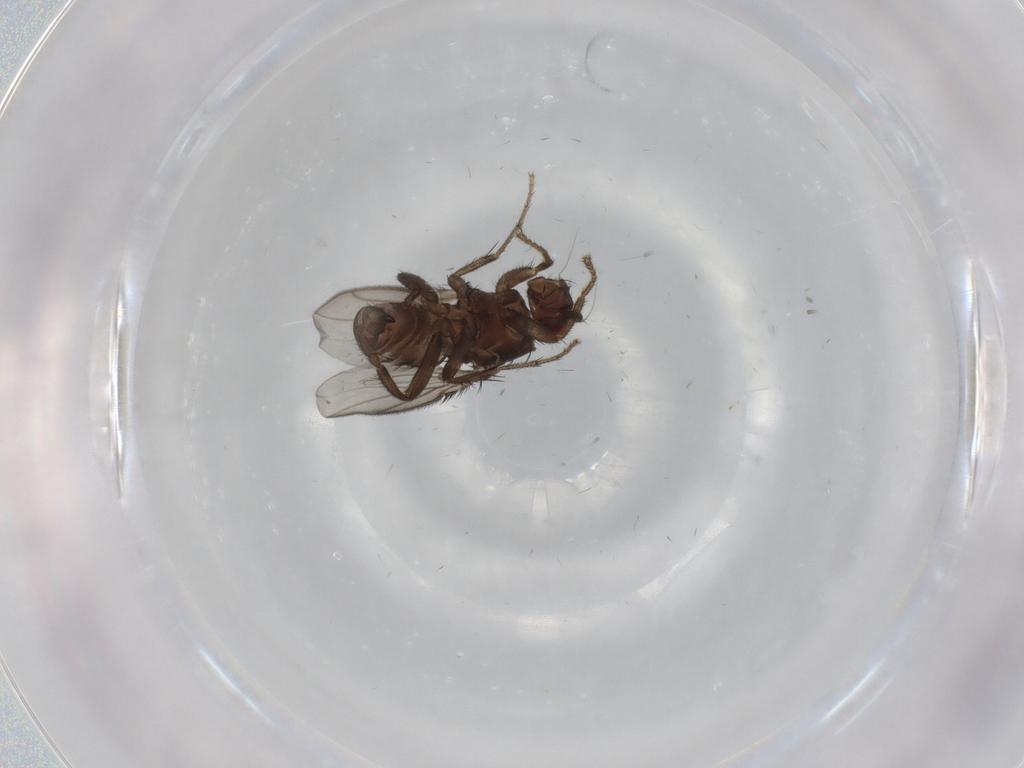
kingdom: Animalia
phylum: Arthropoda
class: Insecta
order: Diptera
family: Sphaeroceridae
